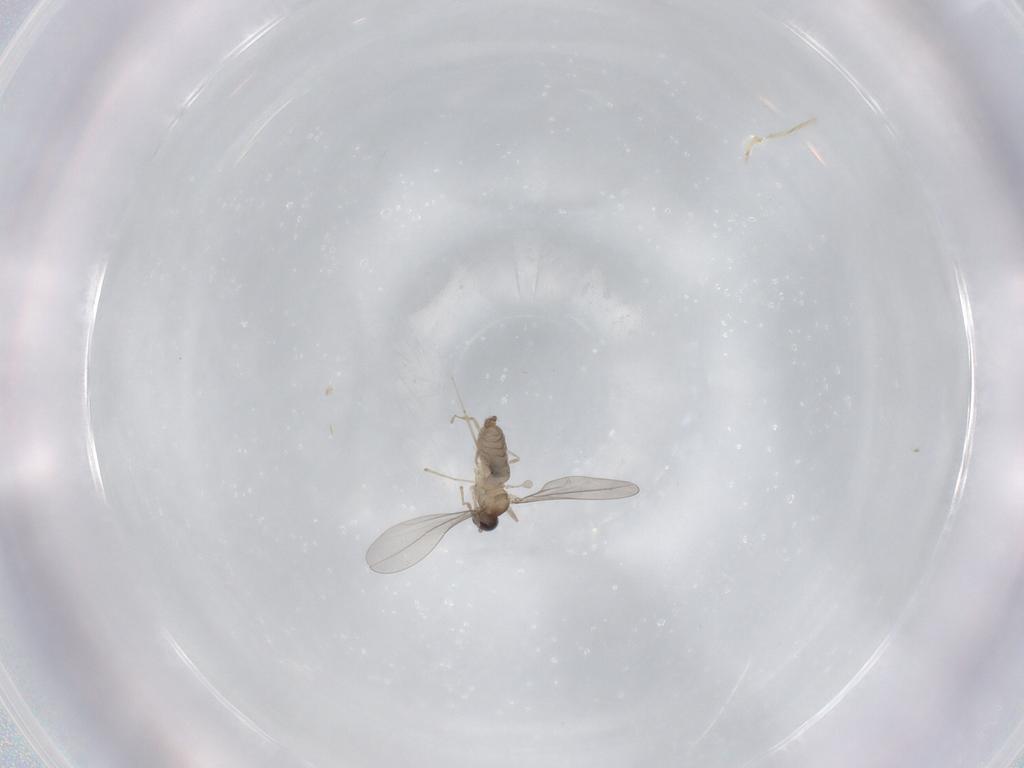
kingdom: Animalia
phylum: Arthropoda
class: Insecta
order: Diptera
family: Cecidomyiidae
